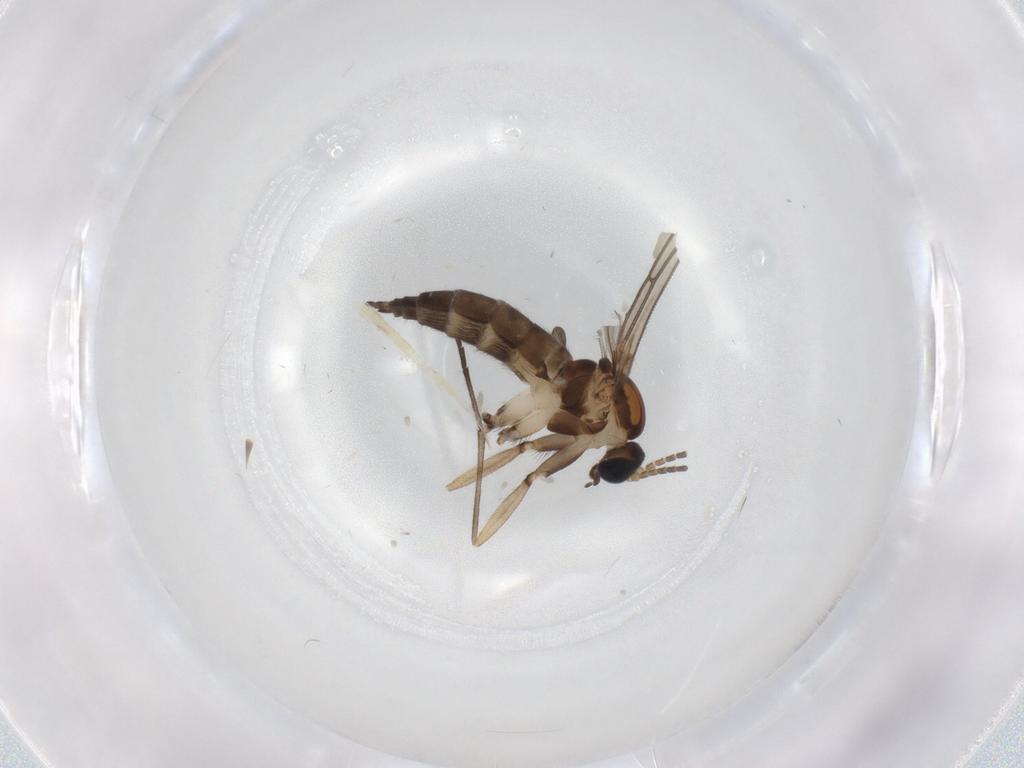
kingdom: Animalia
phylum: Arthropoda
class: Insecta
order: Diptera
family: Sciaridae
